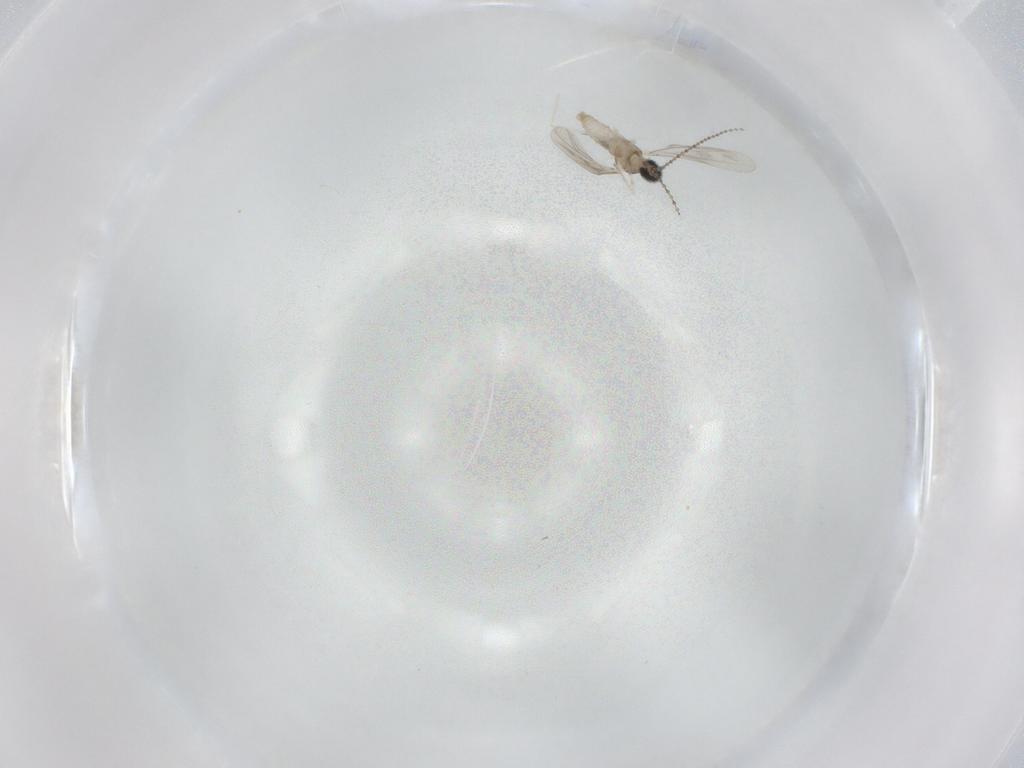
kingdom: Animalia
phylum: Arthropoda
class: Insecta
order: Diptera
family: Cecidomyiidae
